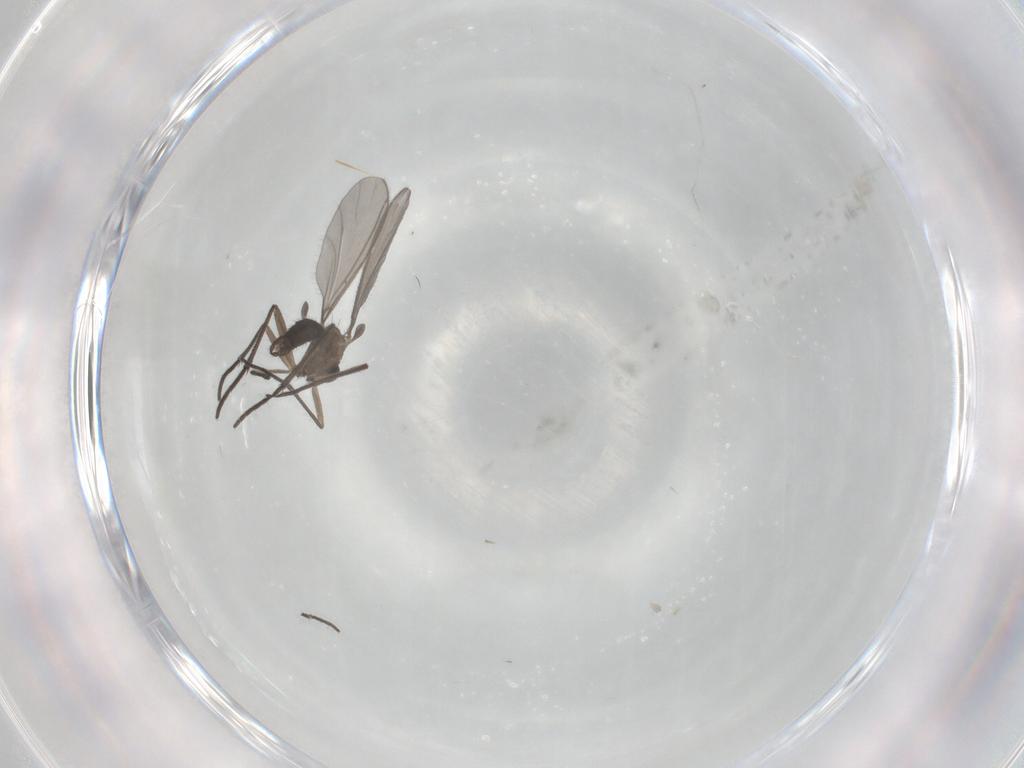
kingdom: Animalia
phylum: Arthropoda
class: Insecta
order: Diptera
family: Sciaridae
